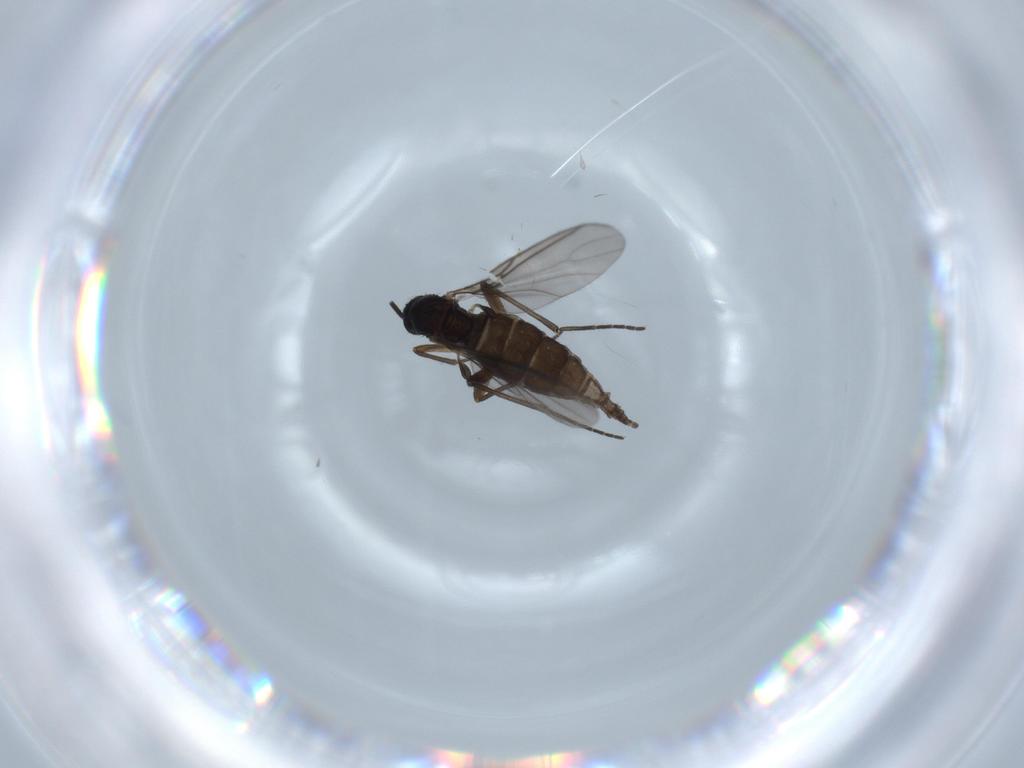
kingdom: Animalia
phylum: Arthropoda
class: Insecta
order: Diptera
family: Sciaridae
